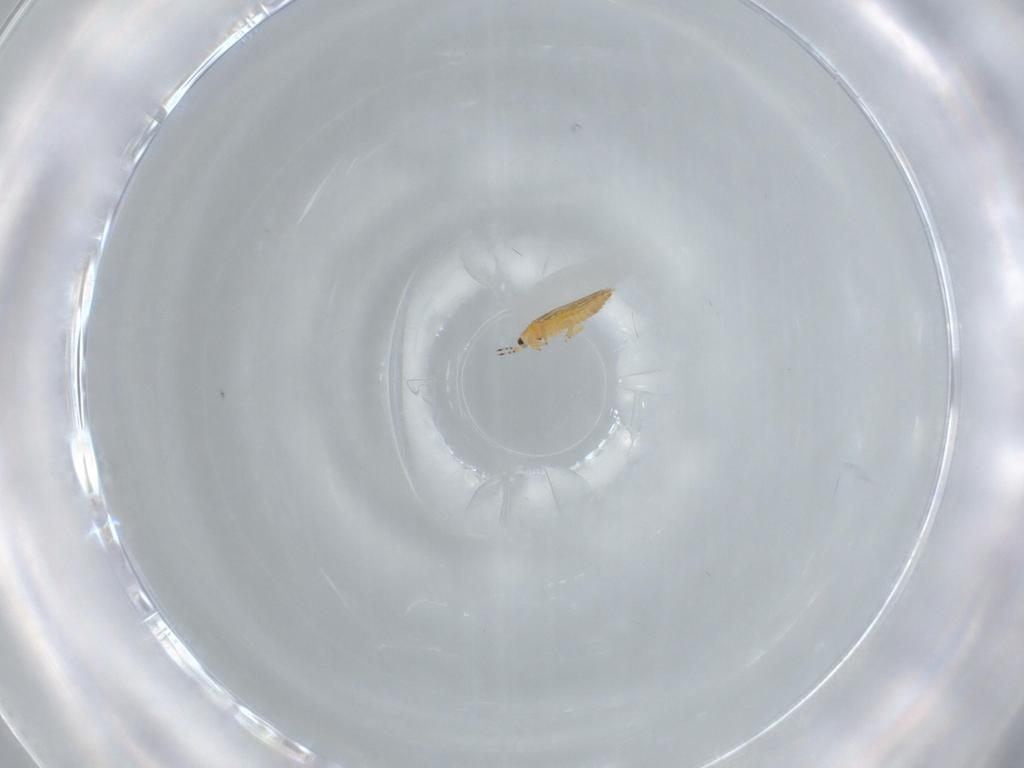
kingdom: Animalia
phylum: Arthropoda
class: Insecta
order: Thysanoptera
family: Thripidae
